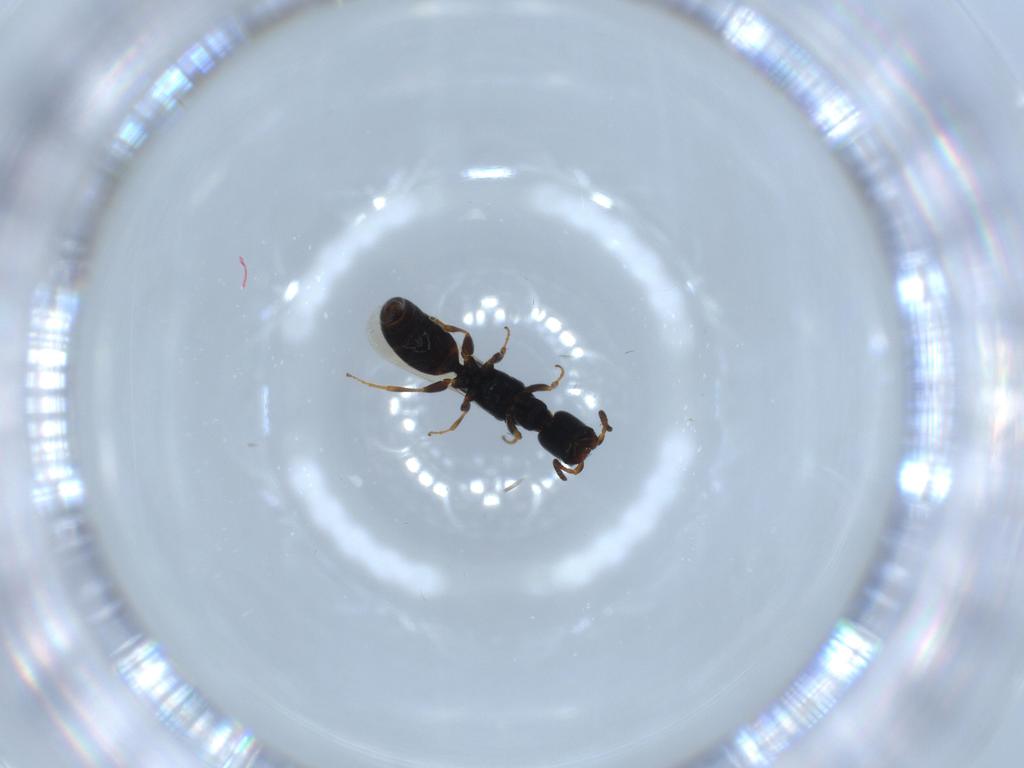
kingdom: Animalia
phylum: Arthropoda
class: Insecta
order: Hymenoptera
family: Bethylidae
